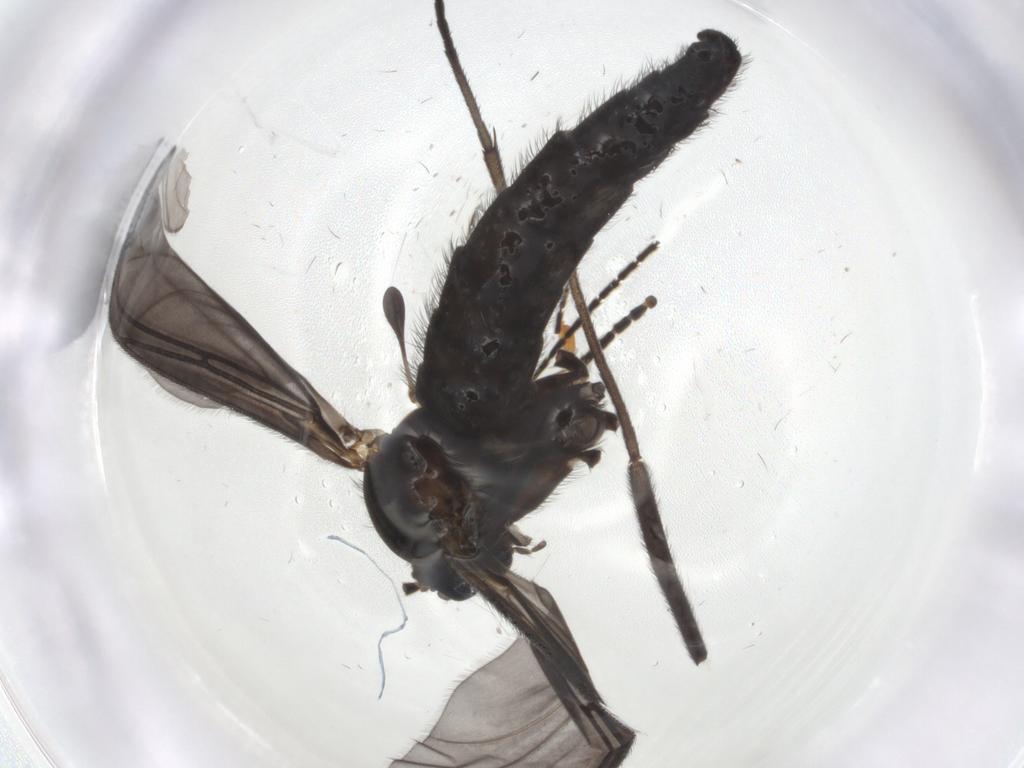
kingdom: Animalia
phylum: Arthropoda
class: Insecta
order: Diptera
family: Sciaridae
